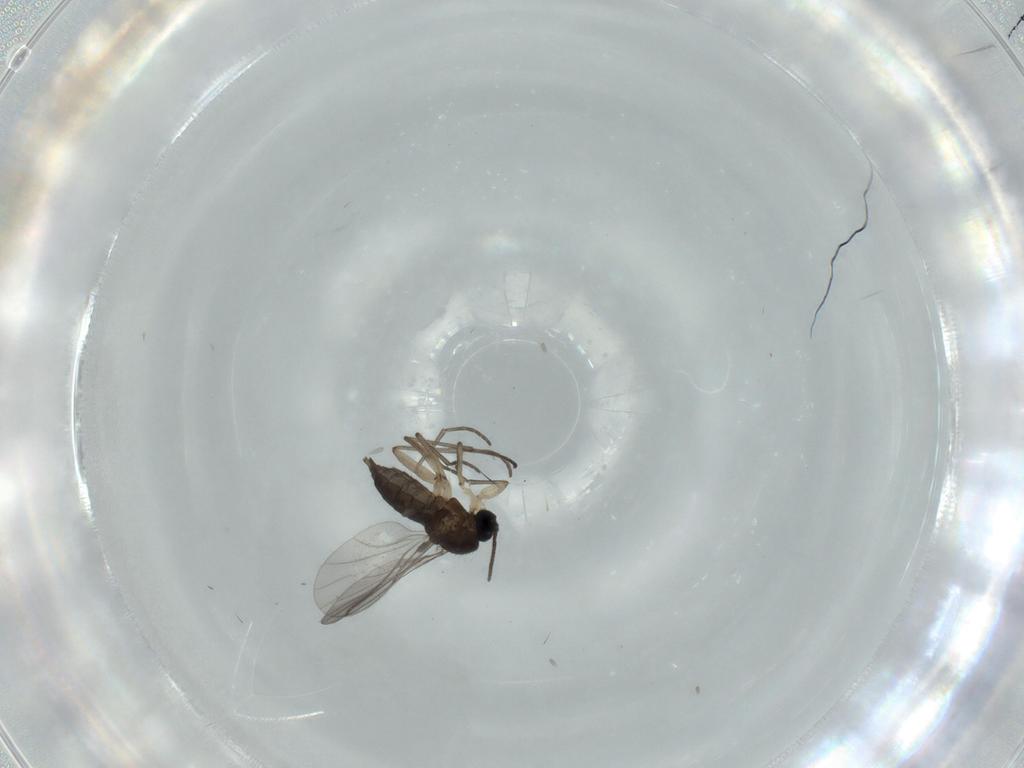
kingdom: Animalia
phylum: Arthropoda
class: Insecta
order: Diptera
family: Sciaridae
